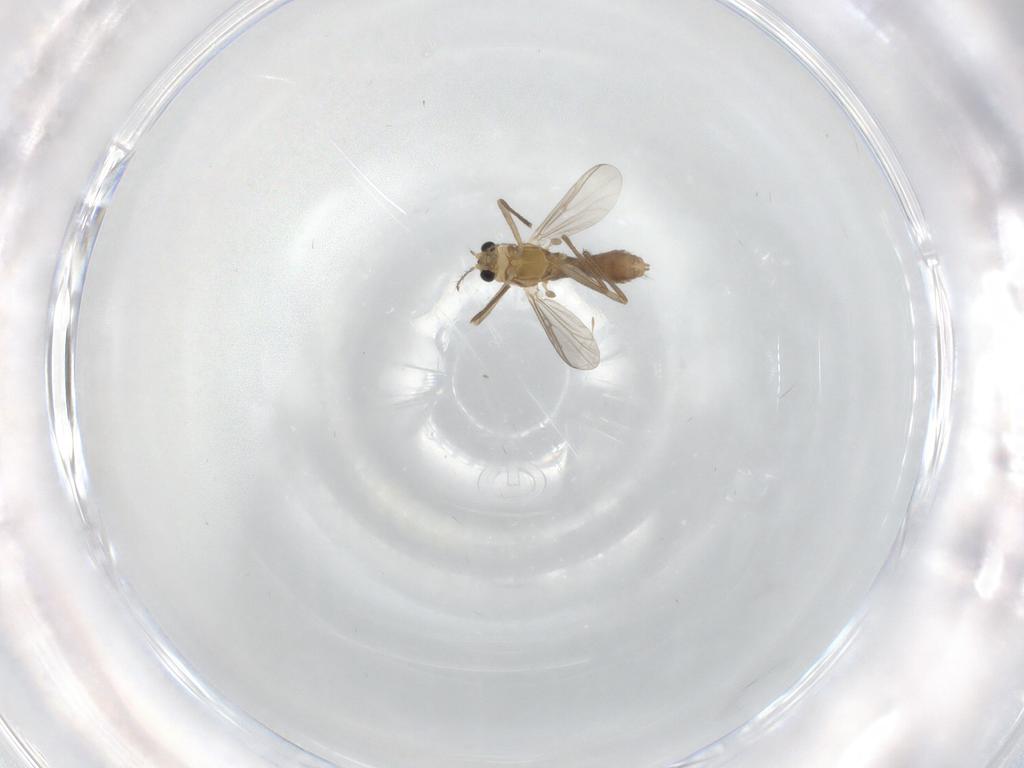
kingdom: Animalia
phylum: Arthropoda
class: Insecta
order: Diptera
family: Chironomidae
